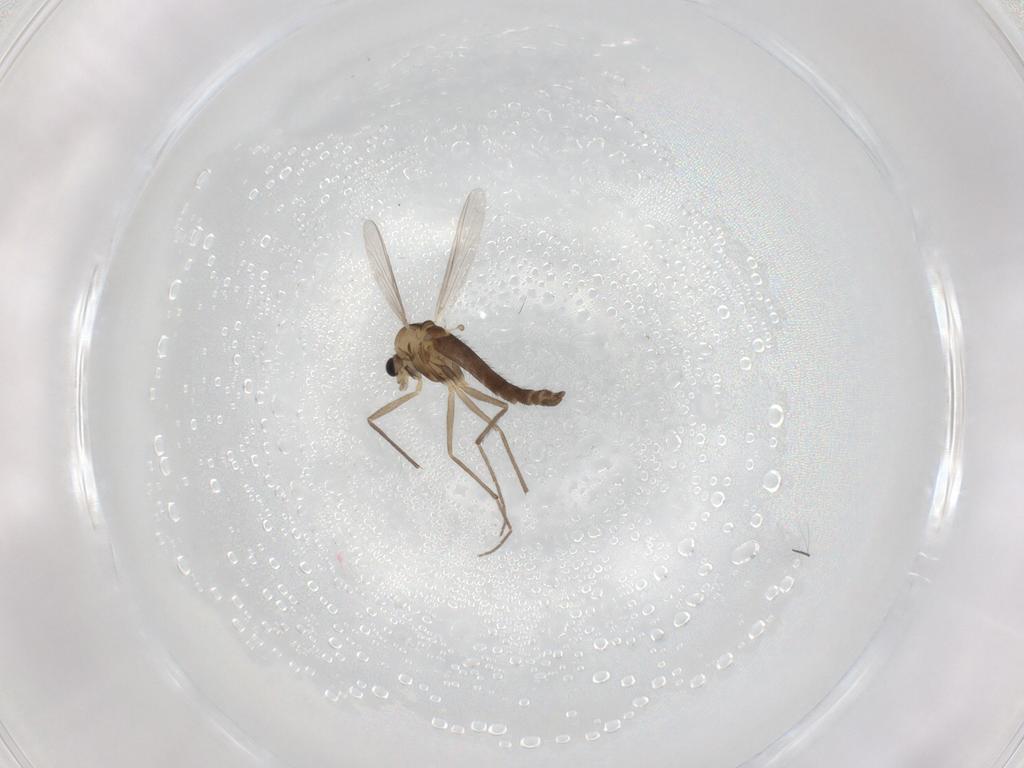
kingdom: Animalia
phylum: Arthropoda
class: Insecta
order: Diptera
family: Chironomidae
